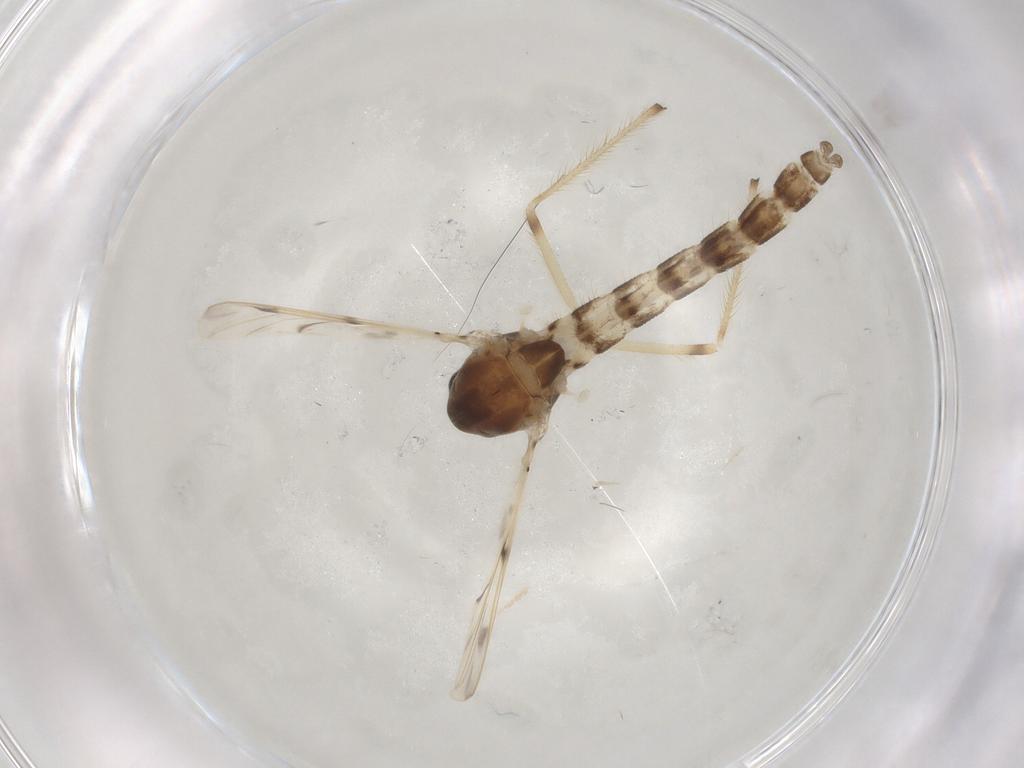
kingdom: Animalia
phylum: Arthropoda
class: Insecta
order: Diptera
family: Chironomidae
